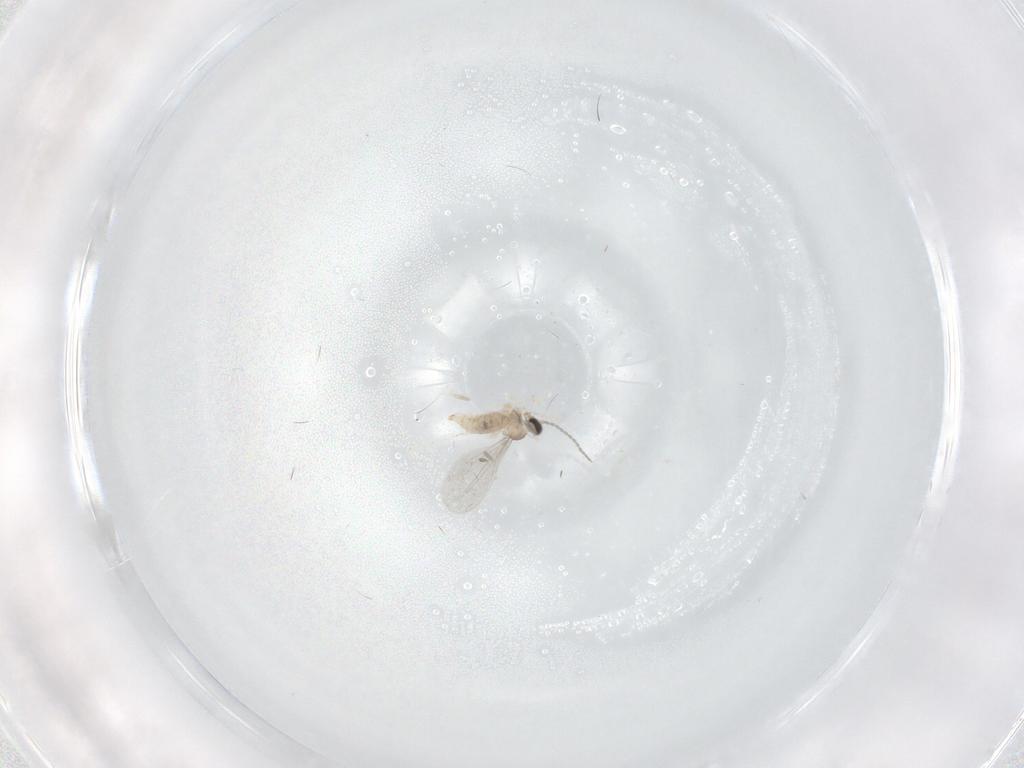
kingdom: Animalia
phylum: Arthropoda
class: Insecta
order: Diptera
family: Cecidomyiidae
